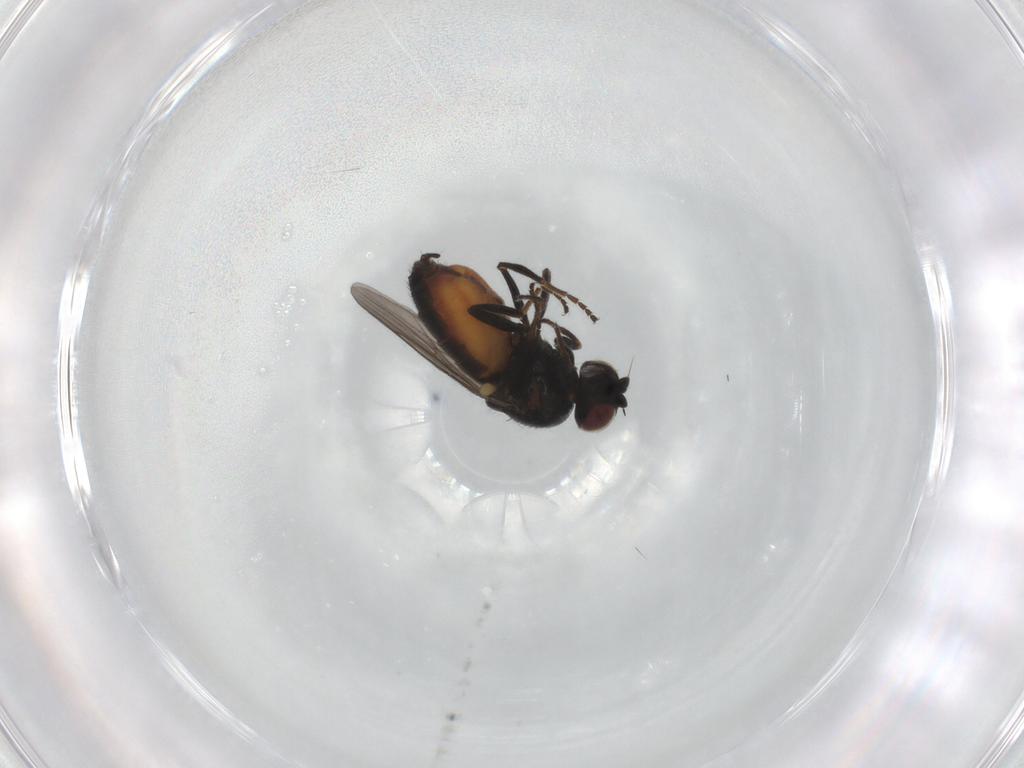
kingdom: Animalia
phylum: Arthropoda
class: Insecta
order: Diptera
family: Chloropidae
